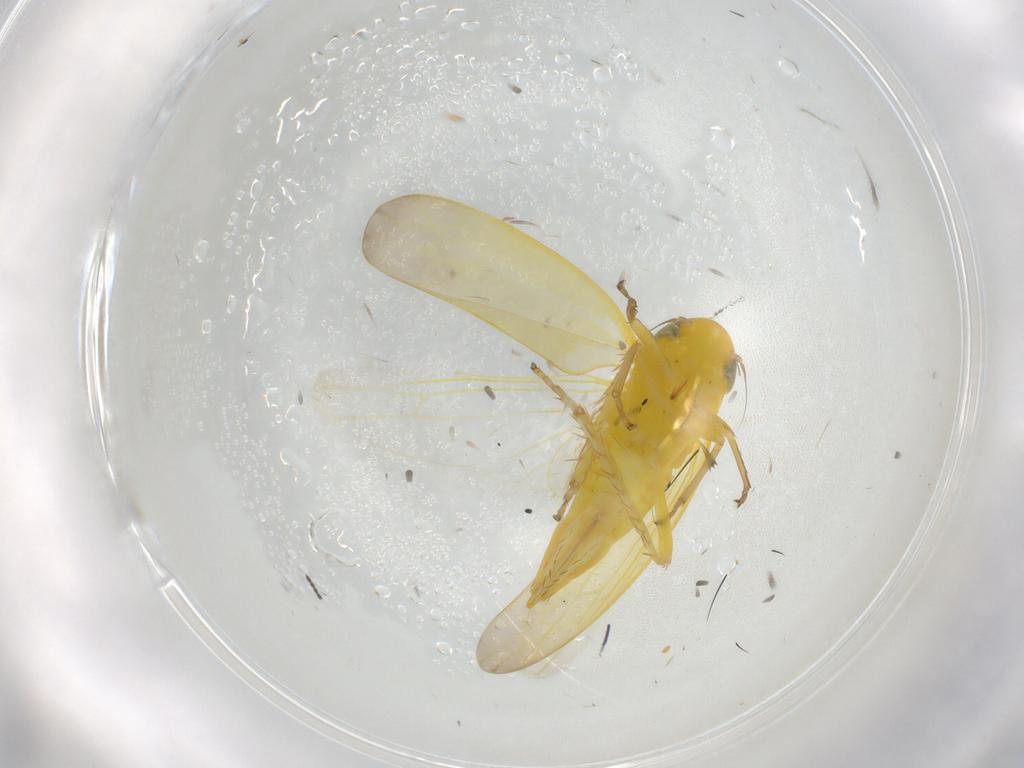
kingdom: Animalia
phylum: Arthropoda
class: Insecta
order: Hemiptera
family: Cicadellidae
